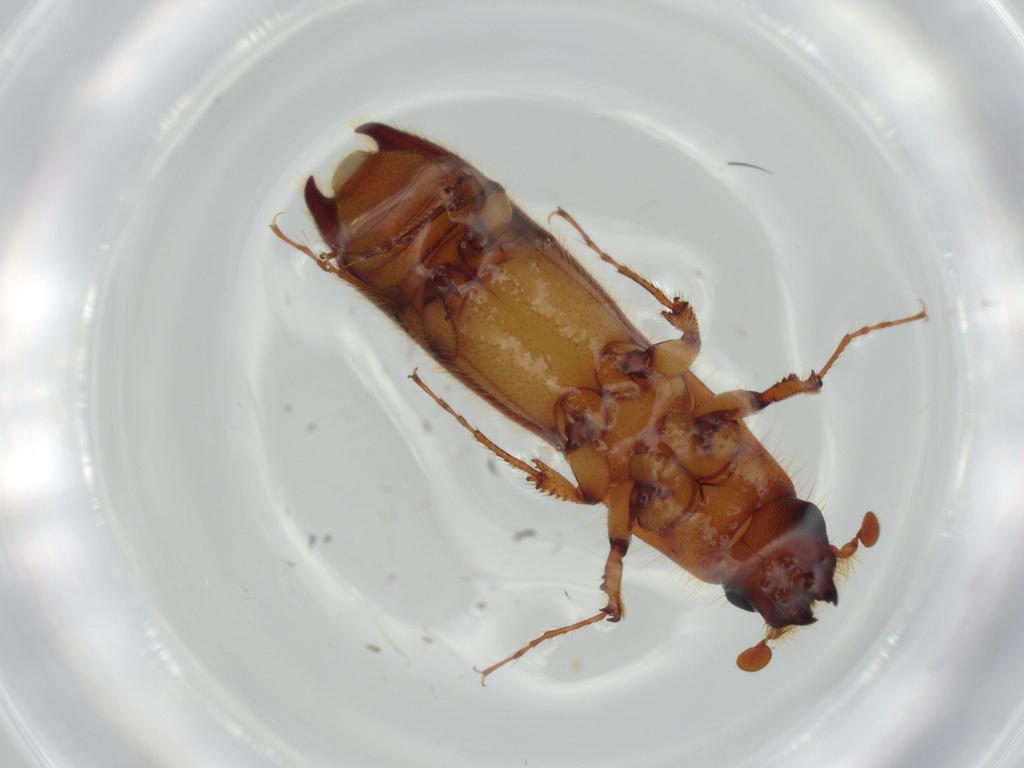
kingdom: Animalia
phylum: Arthropoda
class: Insecta
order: Coleoptera
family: Curculionidae
